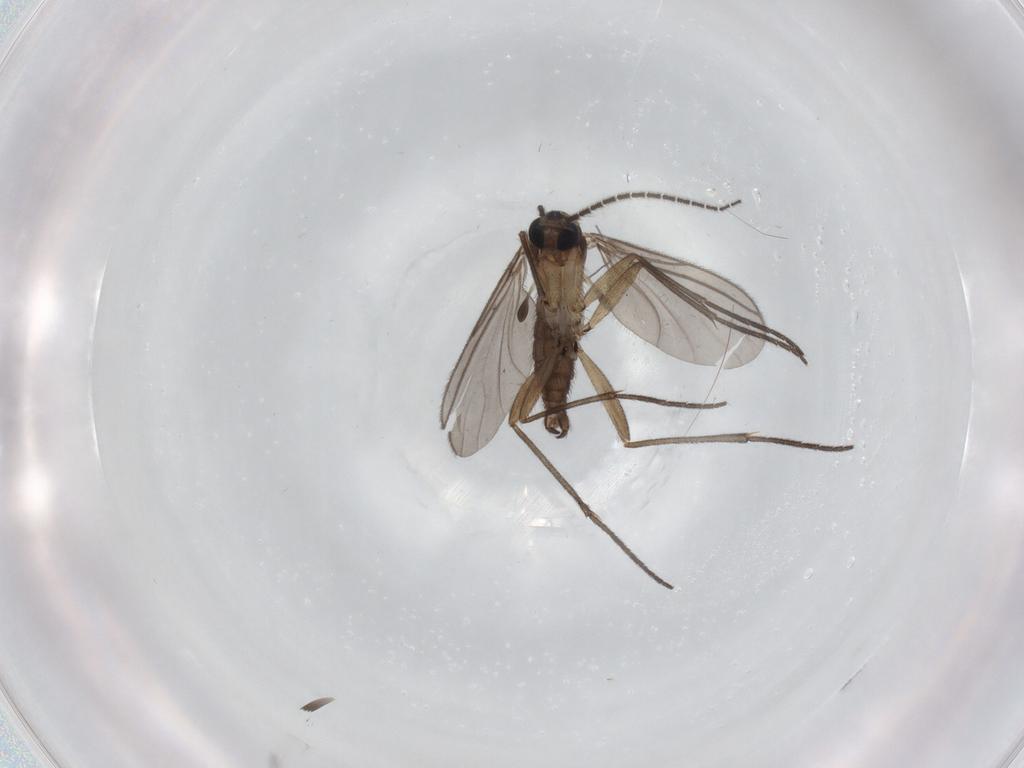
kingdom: Animalia
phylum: Arthropoda
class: Insecta
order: Diptera
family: Sciaridae
